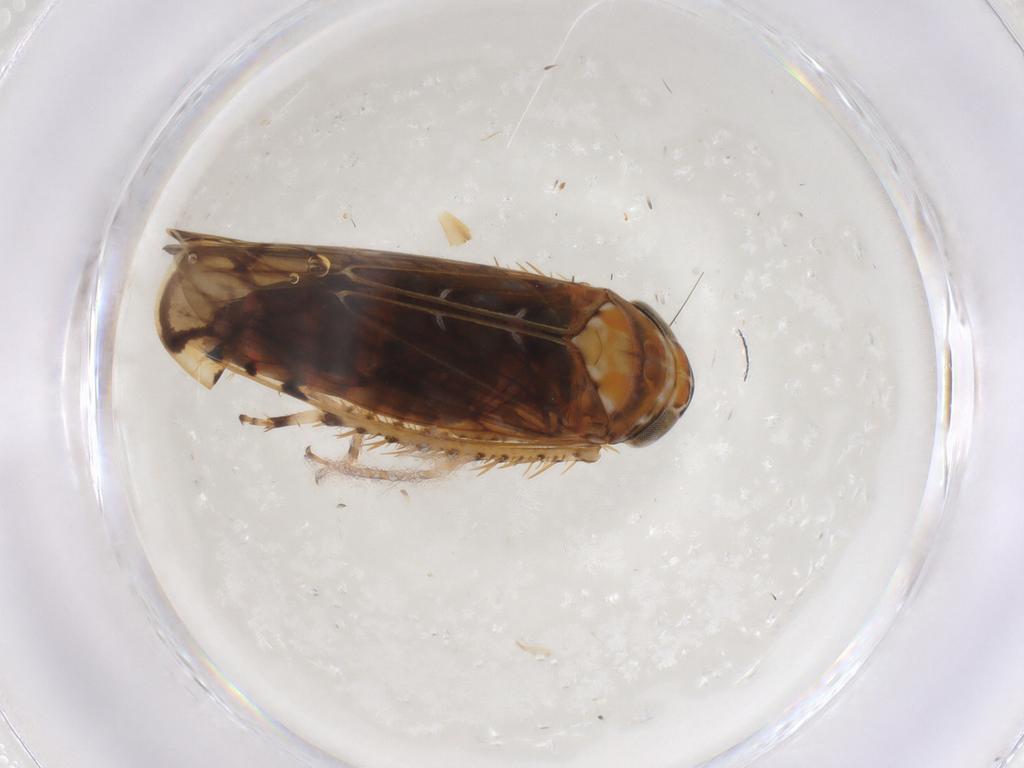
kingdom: Animalia
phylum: Arthropoda
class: Insecta
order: Hemiptera
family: Cicadellidae
